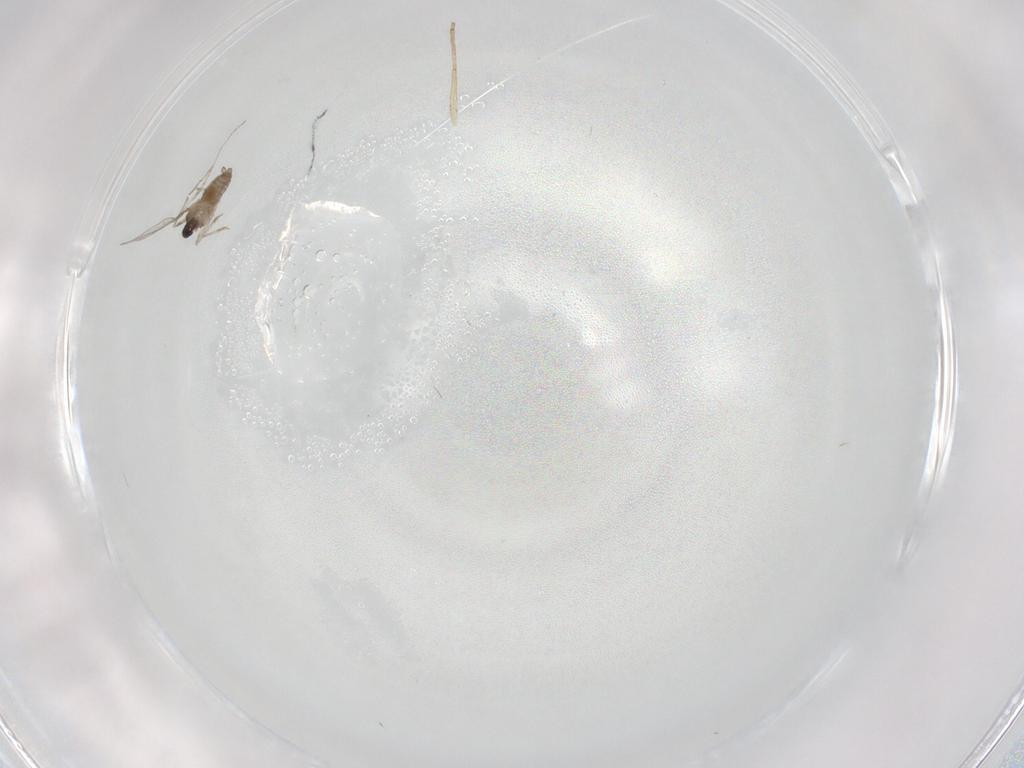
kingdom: Animalia
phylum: Arthropoda
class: Insecta
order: Diptera
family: Cecidomyiidae
